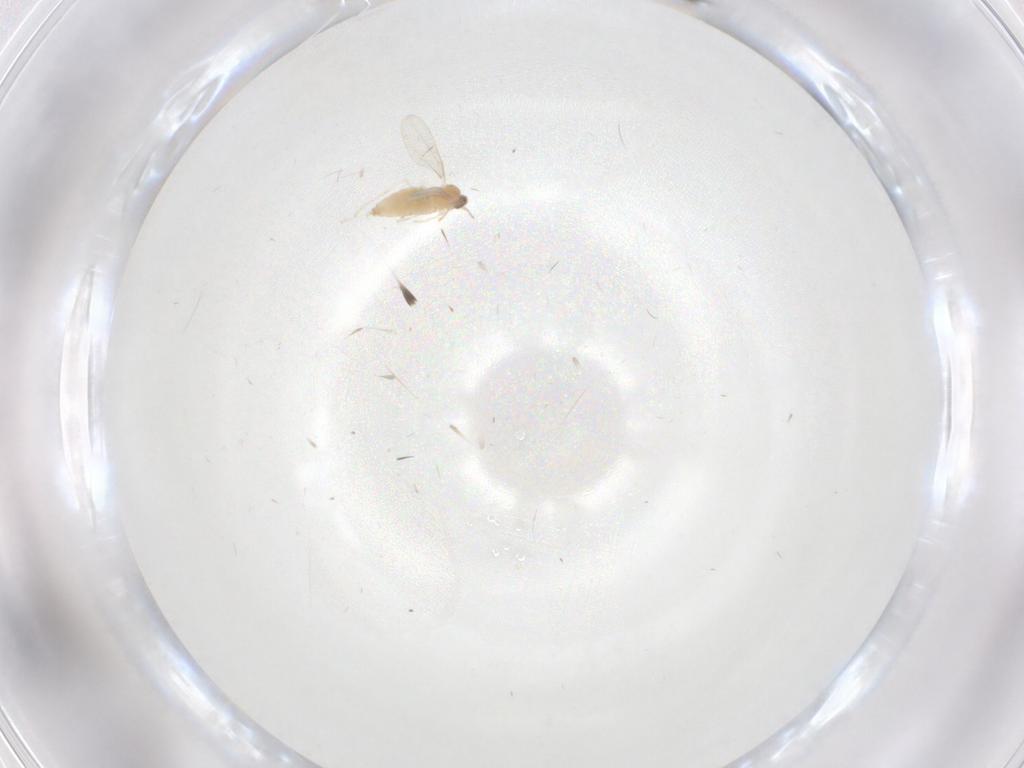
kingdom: Animalia
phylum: Arthropoda
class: Insecta
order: Diptera
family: Cecidomyiidae
